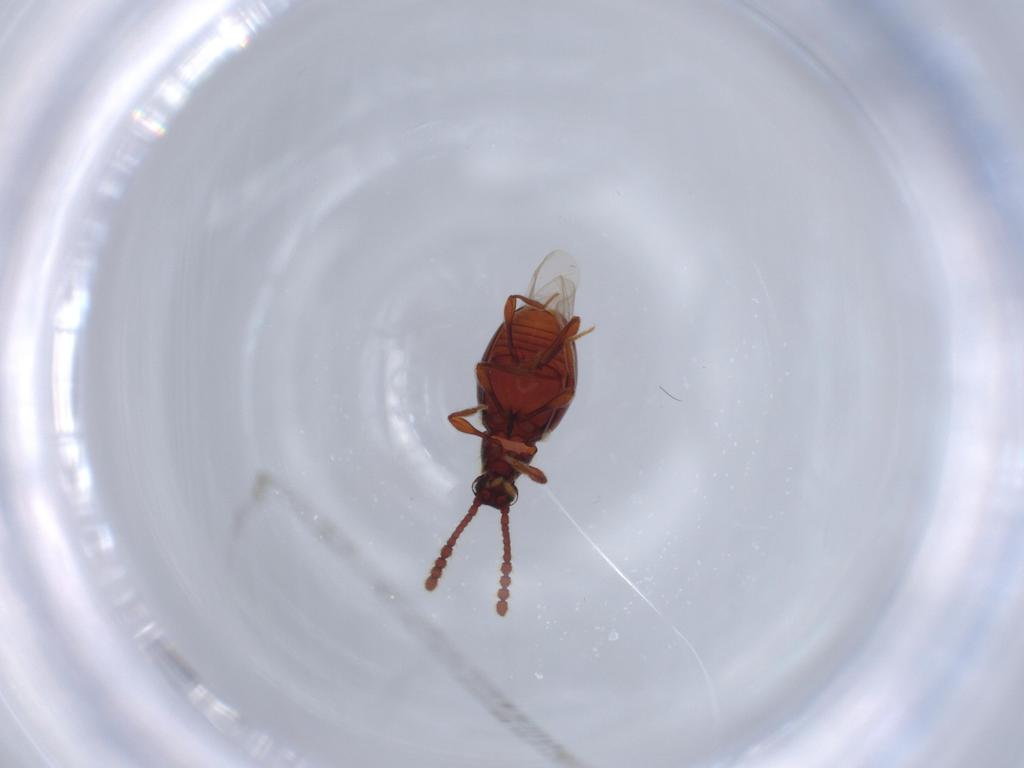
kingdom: Animalia
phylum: Arthropoda
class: Insecta
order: Coleoptera
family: Staphylinidae
